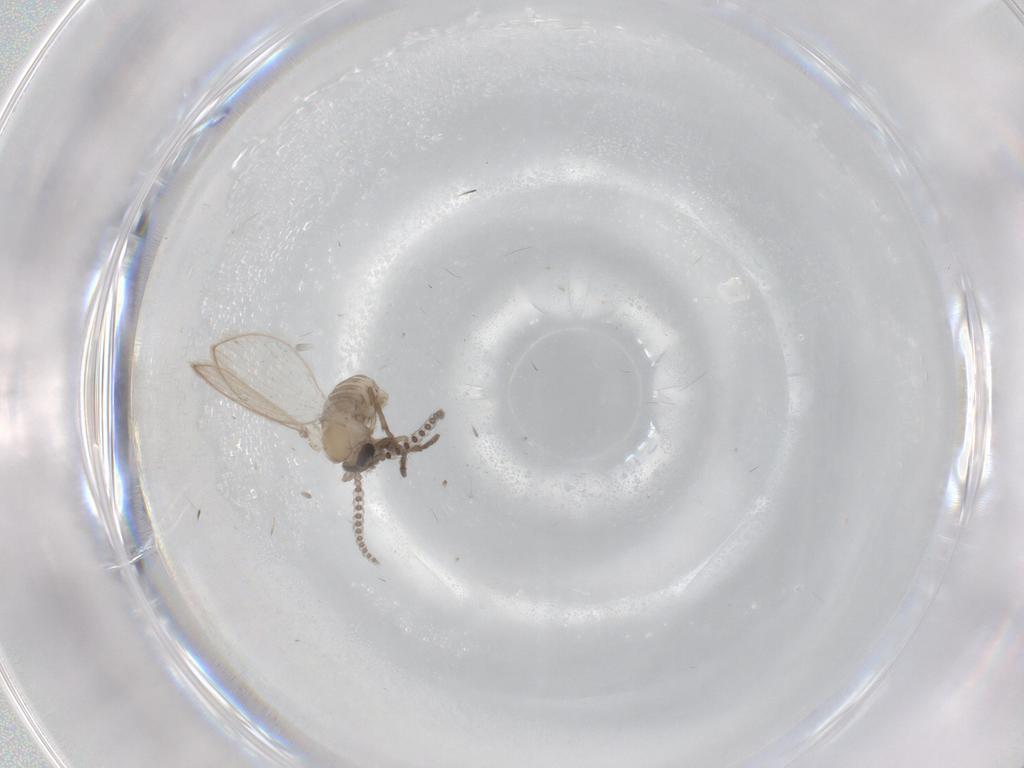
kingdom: Animalia
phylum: Arthropoda
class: Insecta
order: Diptera
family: Psychodidae
